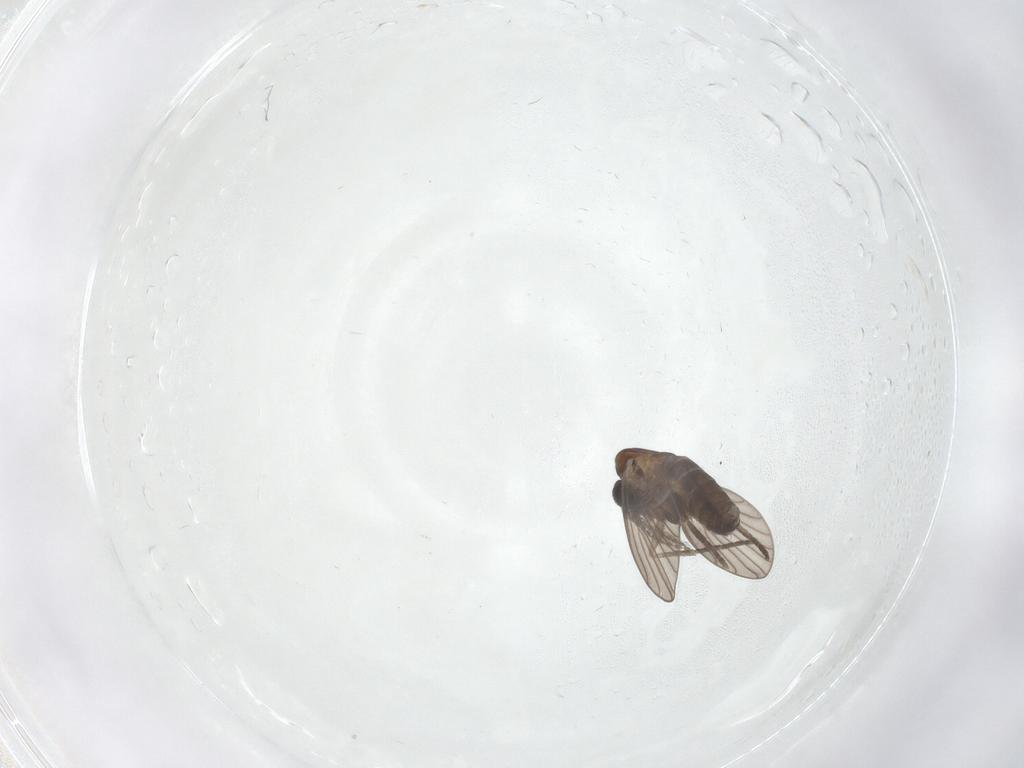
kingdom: Animalia
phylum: Arthropoda
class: Insecta
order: Diptera
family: Psychodidae
